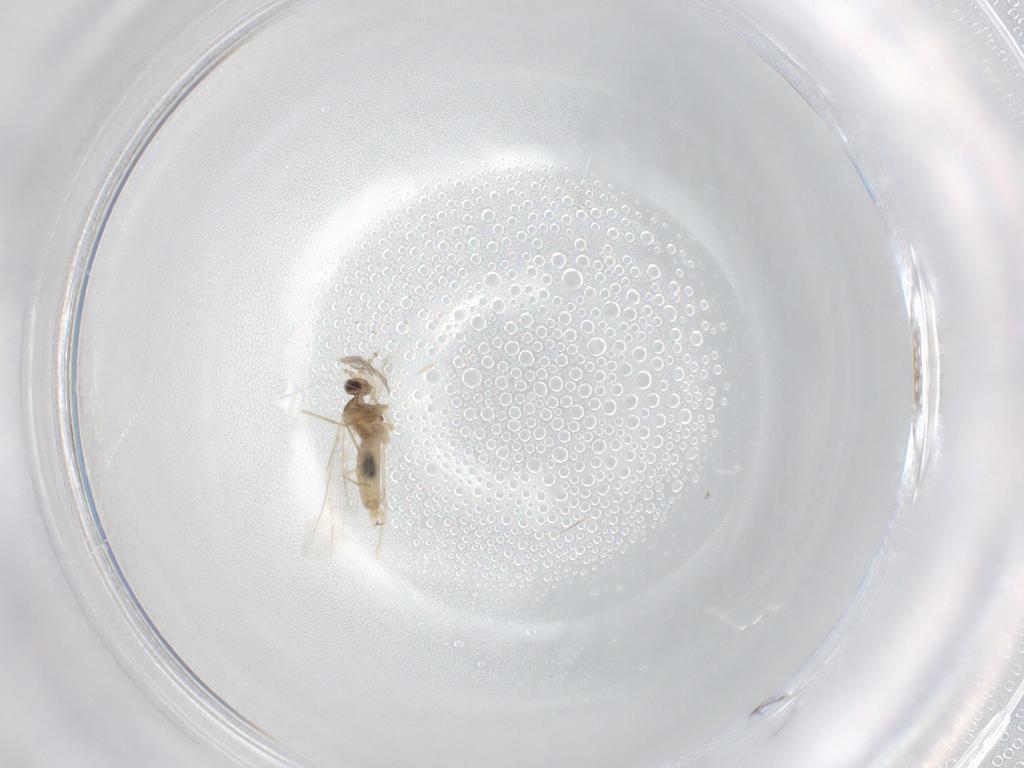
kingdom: Animalia
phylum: Arthropoda
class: Insecta
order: Diptera
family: Cecidomyiidae
